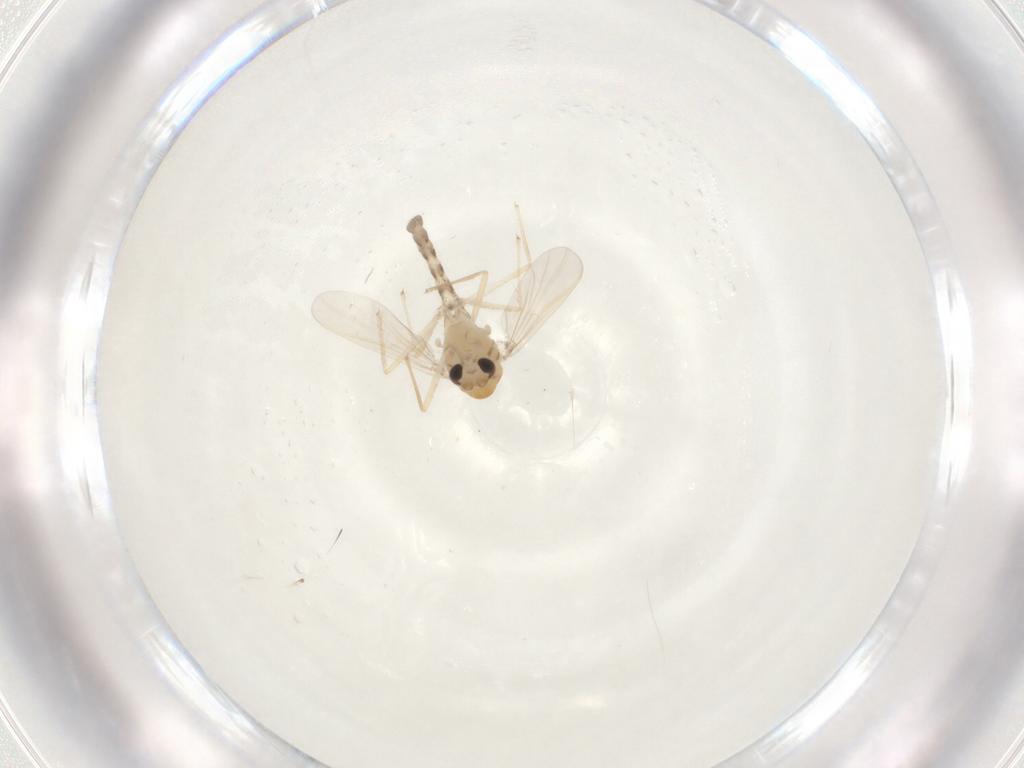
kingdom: Animalia
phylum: Arthropoda
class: Insecta
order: Diptera
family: Chironomidae
